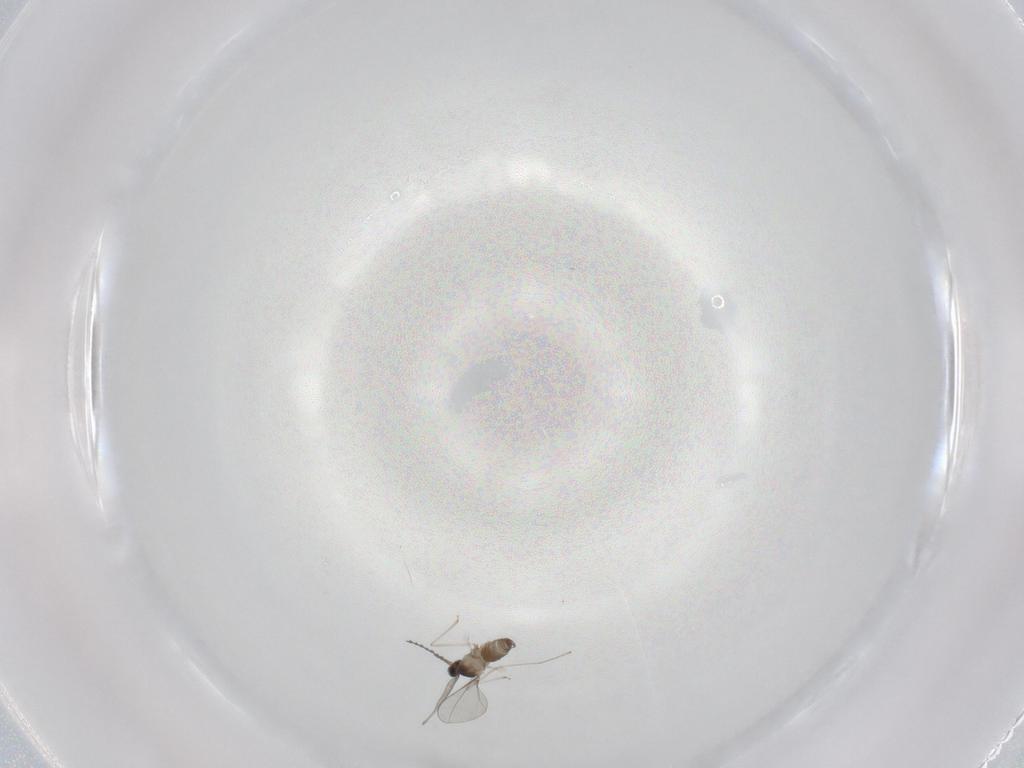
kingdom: Animalia
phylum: Arthropoda
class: Insecta
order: Diptera
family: Cecidomyiidae
